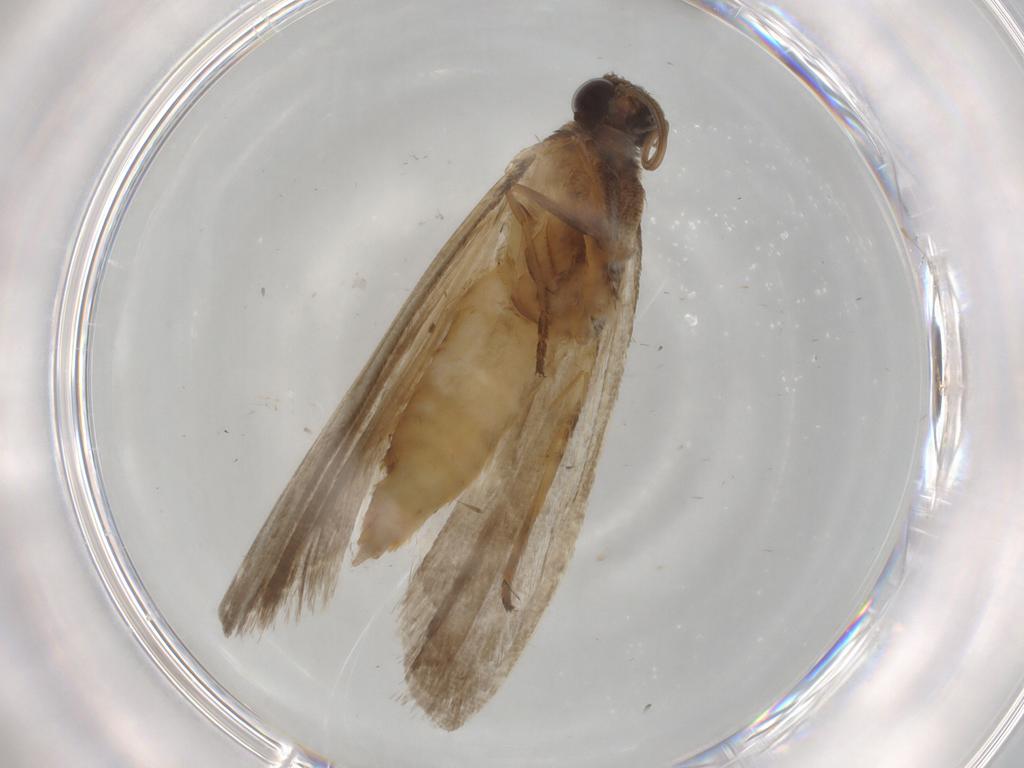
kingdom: Animalia
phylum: Arthropoda
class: Insecta
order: Lepidoptera
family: Noctuidae
